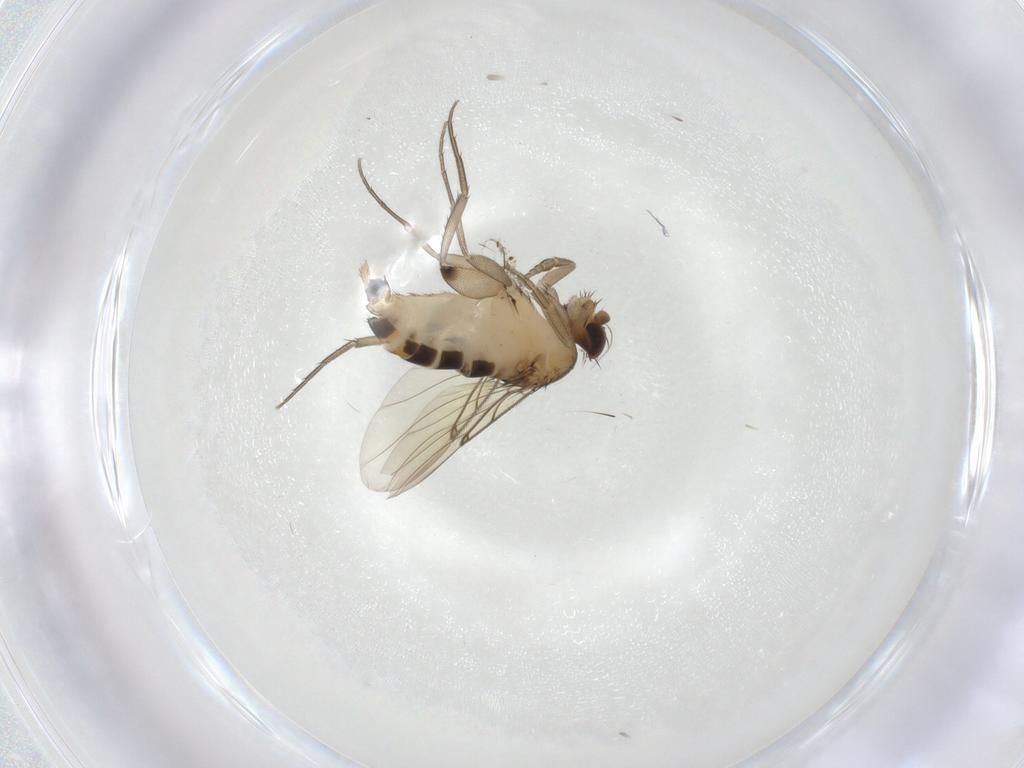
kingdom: Animalia
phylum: Arthropoda
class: Insecta
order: Diptera
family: Phoridae
